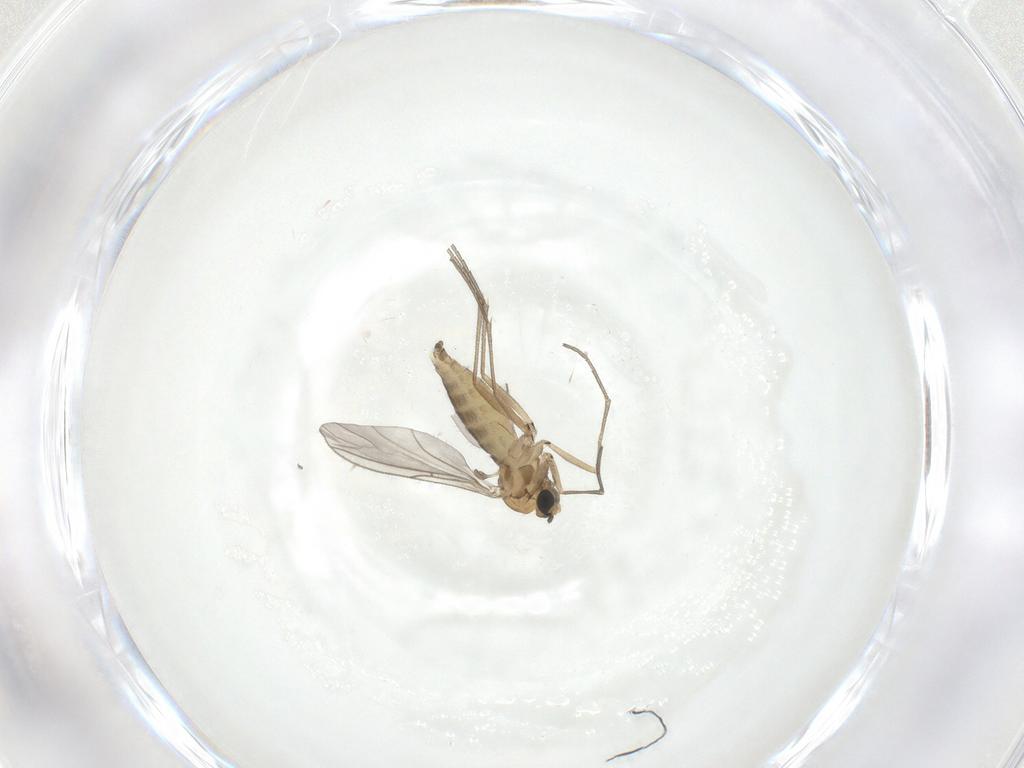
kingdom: Animalia
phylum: Arthropoda
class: Insecta
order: Diptera
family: Sciaridae
